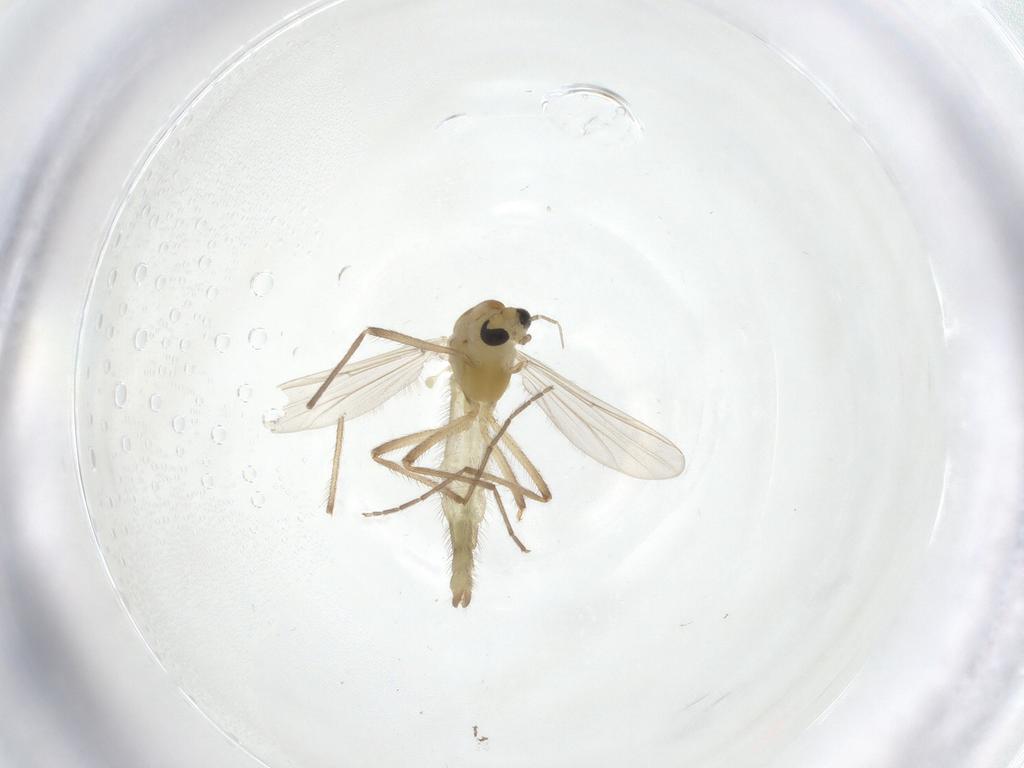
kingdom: Animalia
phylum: Arthropoda
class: Insecta
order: Diptera
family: Chironomidae
